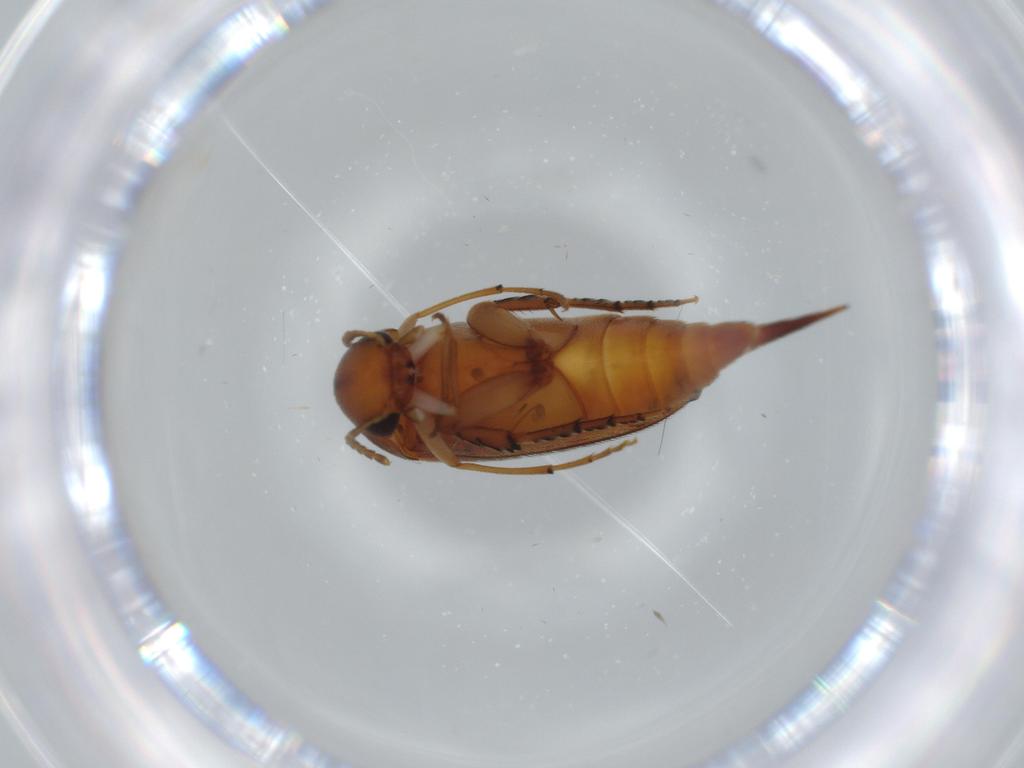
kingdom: Animalia
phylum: Arthropoda
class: Insecta
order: Coleoptera
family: Mordellidae
